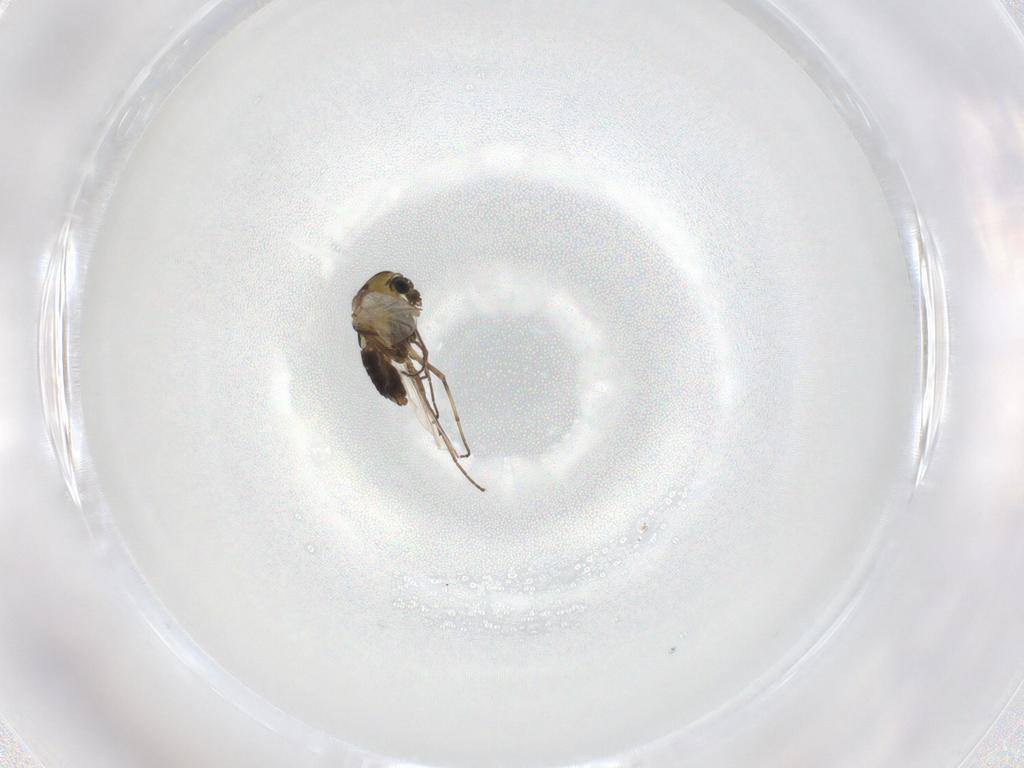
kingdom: Animalia
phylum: Arthropoda
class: Insecta
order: Diptera
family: Chironomidae
